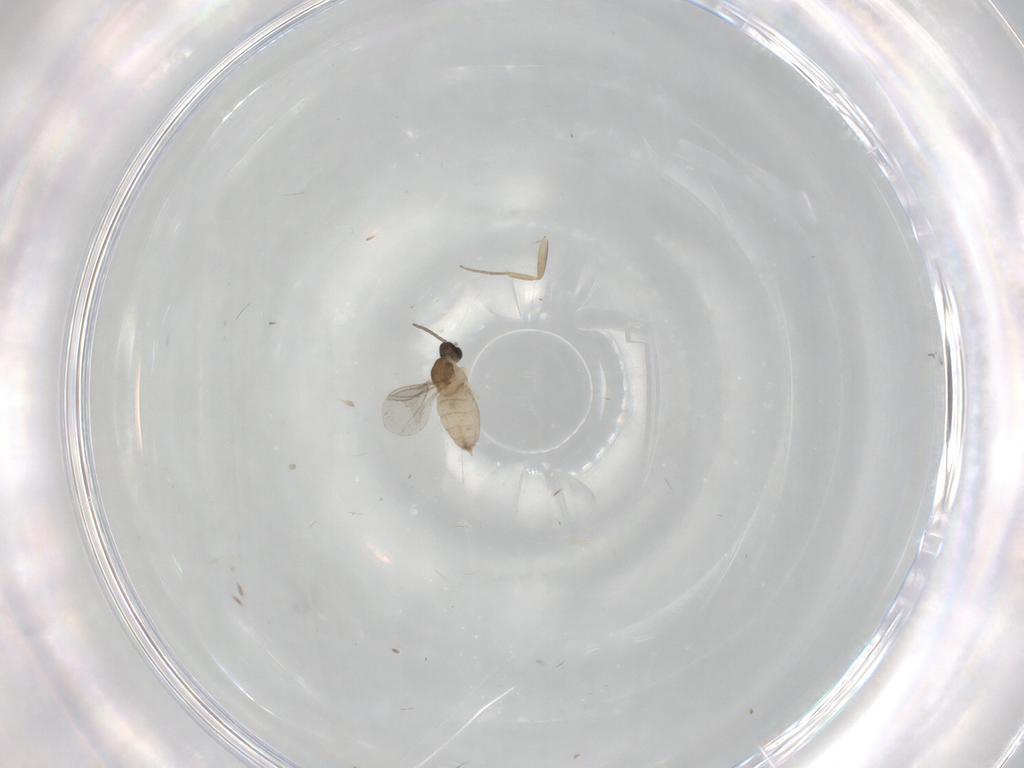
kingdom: Animalia
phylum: Arthropoda
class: Insecta
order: Diptera
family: Cecidomyiidae
